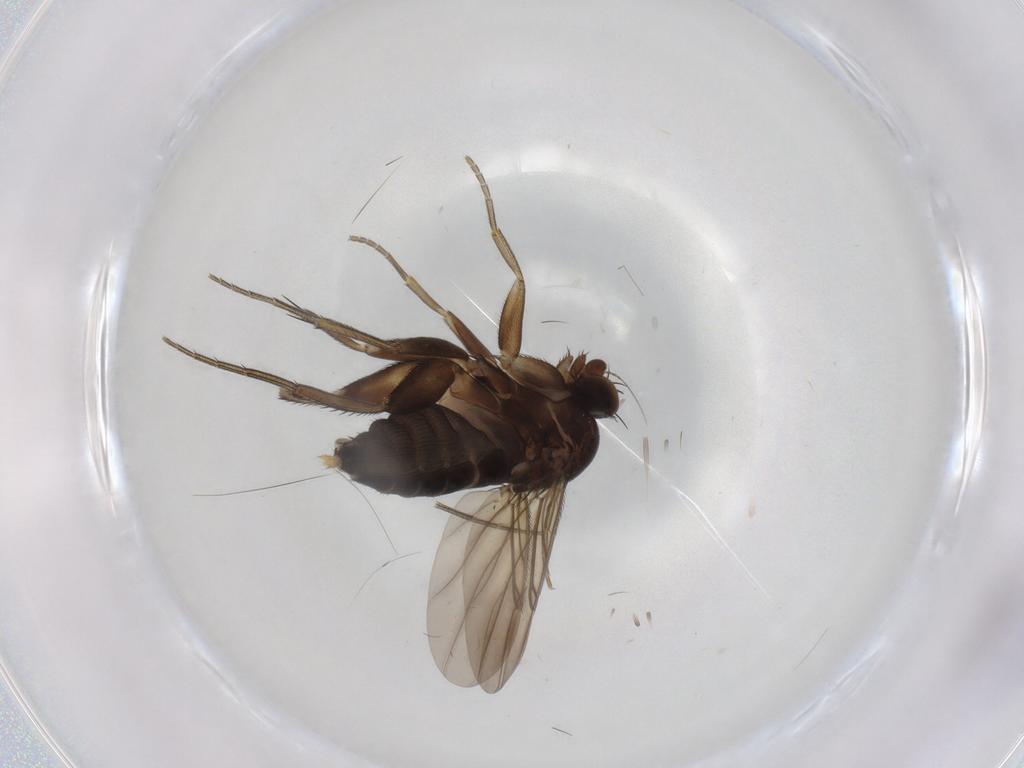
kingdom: Animalia
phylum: Arthropoda
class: Insecta
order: Diptera
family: Phoridae
